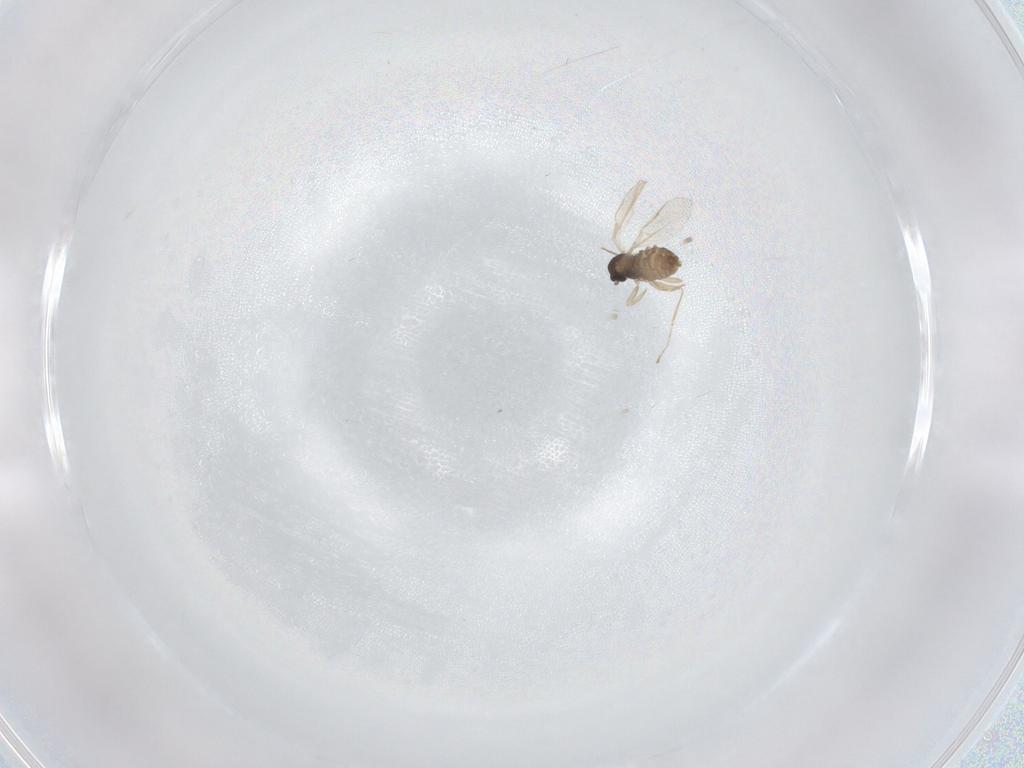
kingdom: Animalia
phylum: Arthropoda
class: Insecta
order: Diptera
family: Cecidomyiidae
